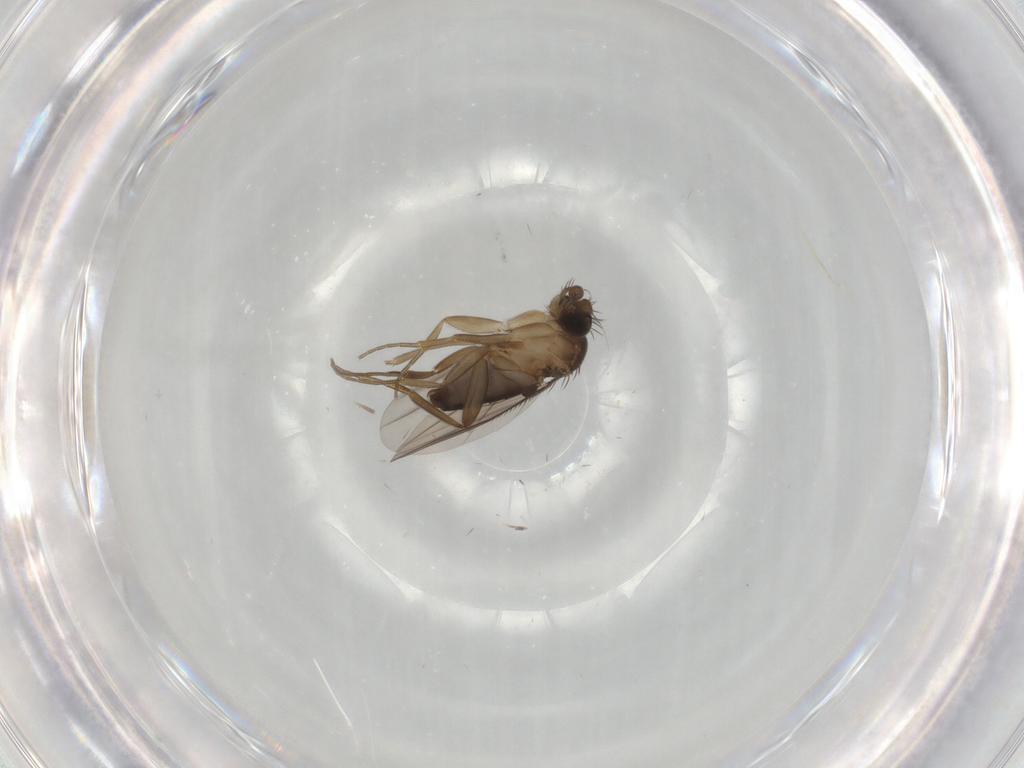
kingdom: Animalia
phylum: Arthropoda
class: Insecta
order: Diptera
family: Phoridae
